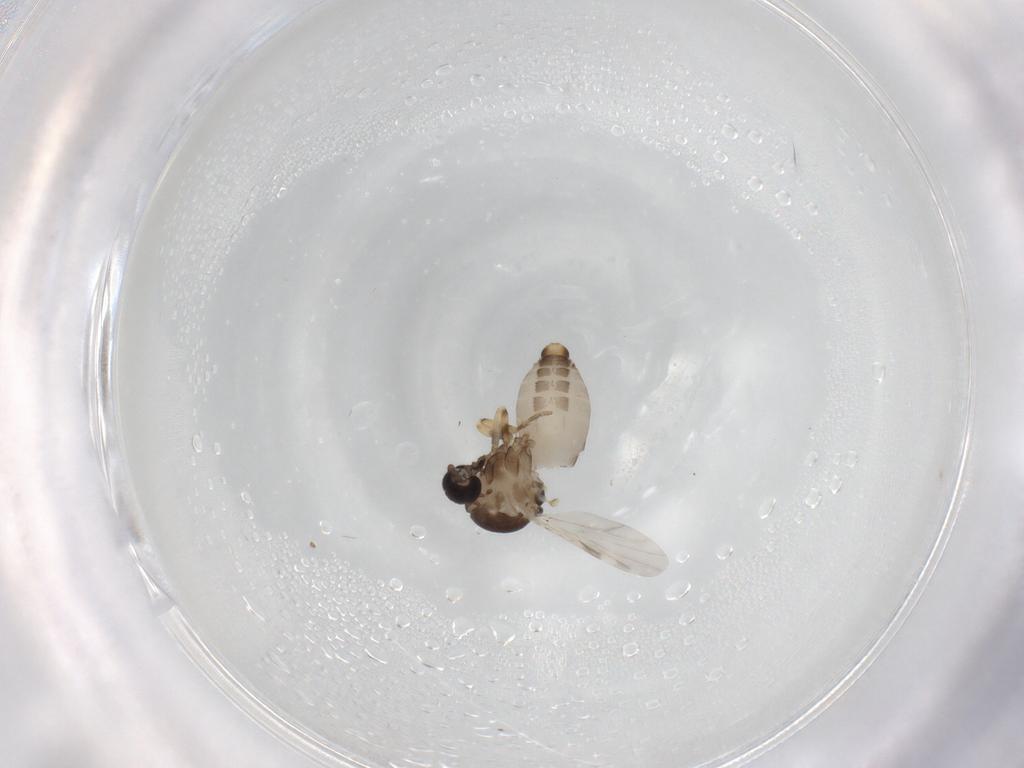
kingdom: Animalia
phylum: Arthropoda
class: Insecta
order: Diptera
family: Ceratopogonidae
